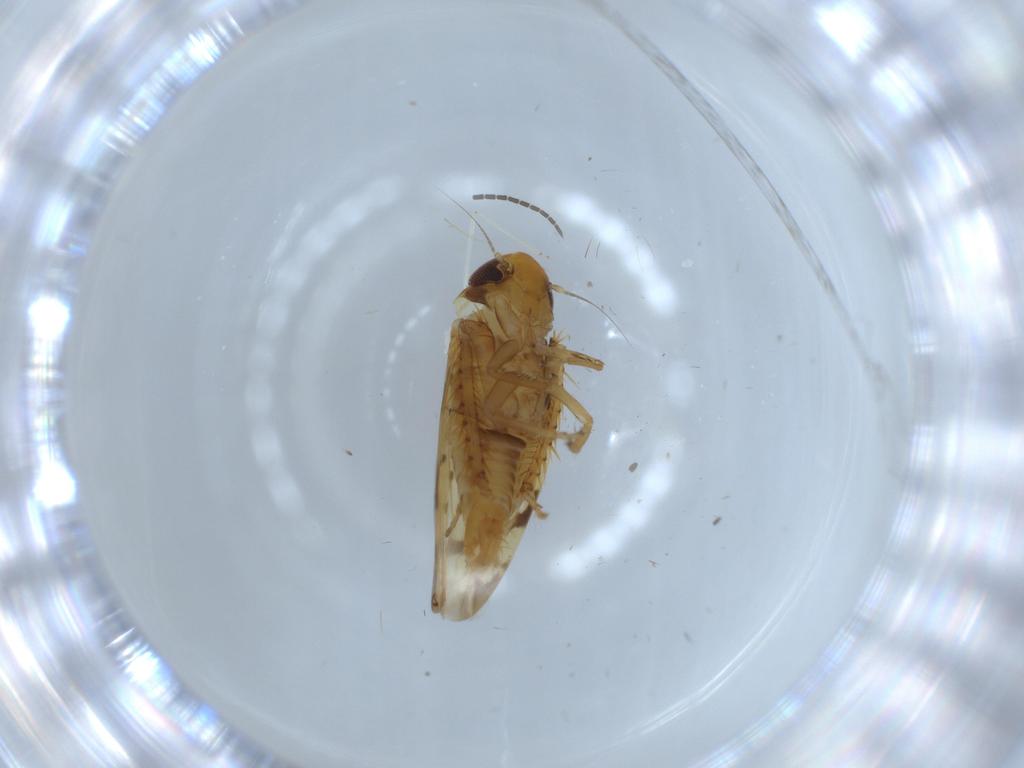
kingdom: Animalia
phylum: Arthropoda
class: Insecta
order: Hemiptera
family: Cicadellidae
